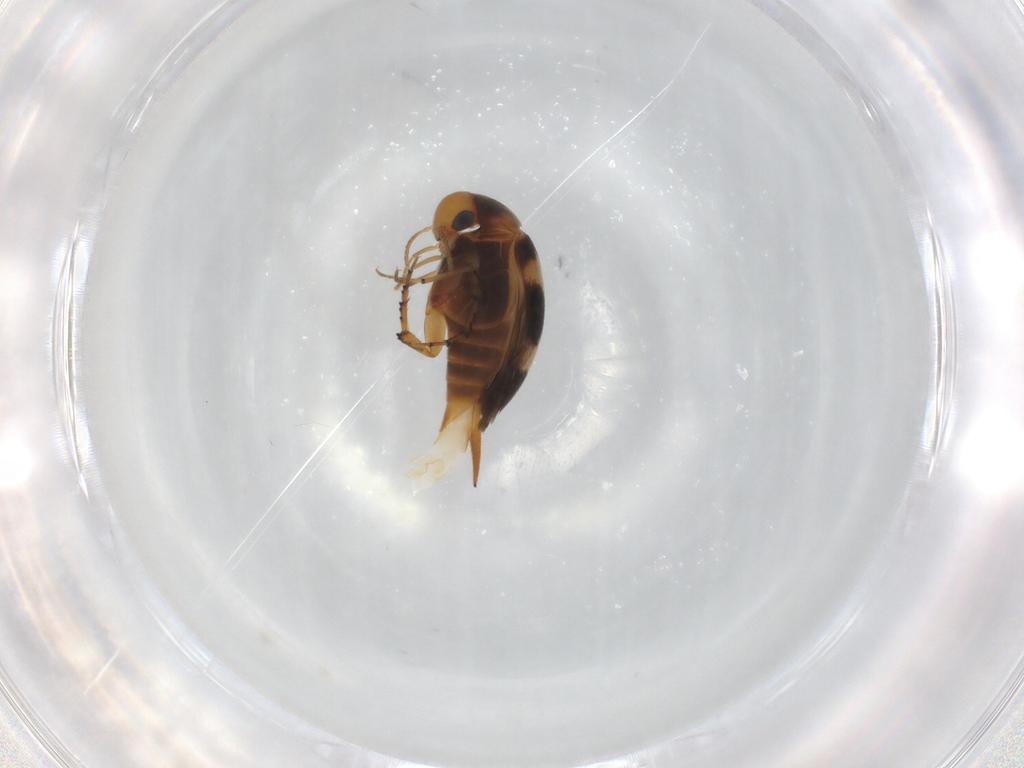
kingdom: Animalia
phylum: Arthropoda
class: Insecta
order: Coleoptera
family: Mordellidae
